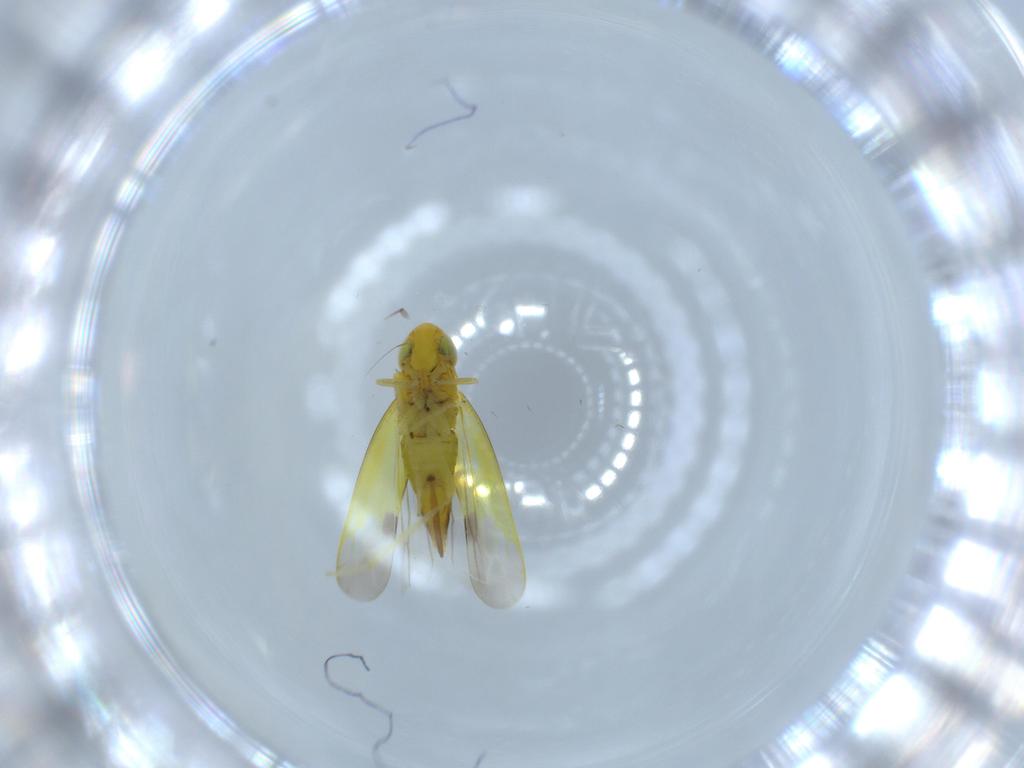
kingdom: Animalia
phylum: Arthropoda
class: Insecta
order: Hemiptera
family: Cicadellidae
